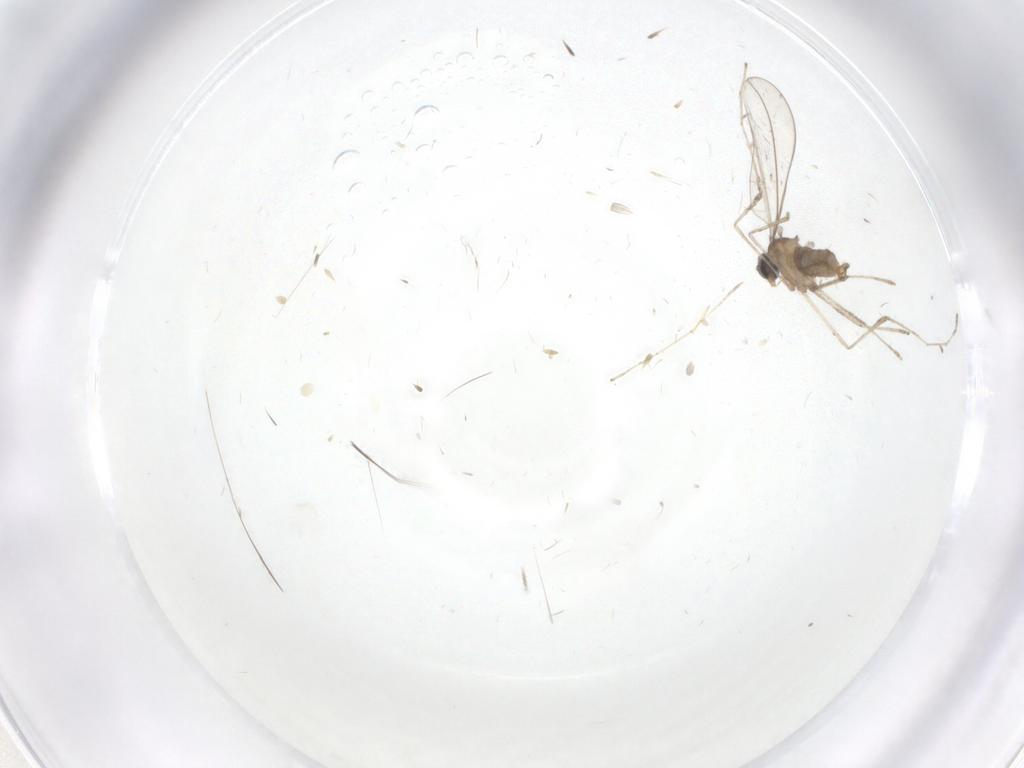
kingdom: Animalia
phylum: Arthropoda
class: Insecta
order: Diptera
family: Cecidomyiidae
